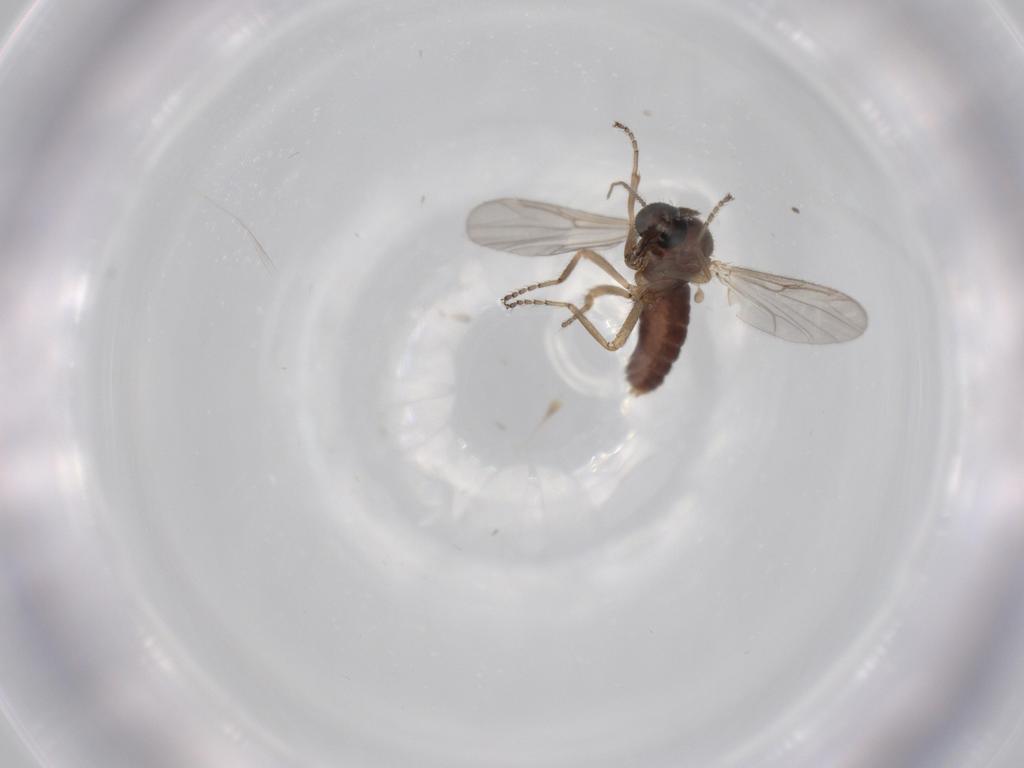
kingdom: Animalia
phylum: Arthropoda
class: Insecta
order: Diptera
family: Ceratopogonidae
